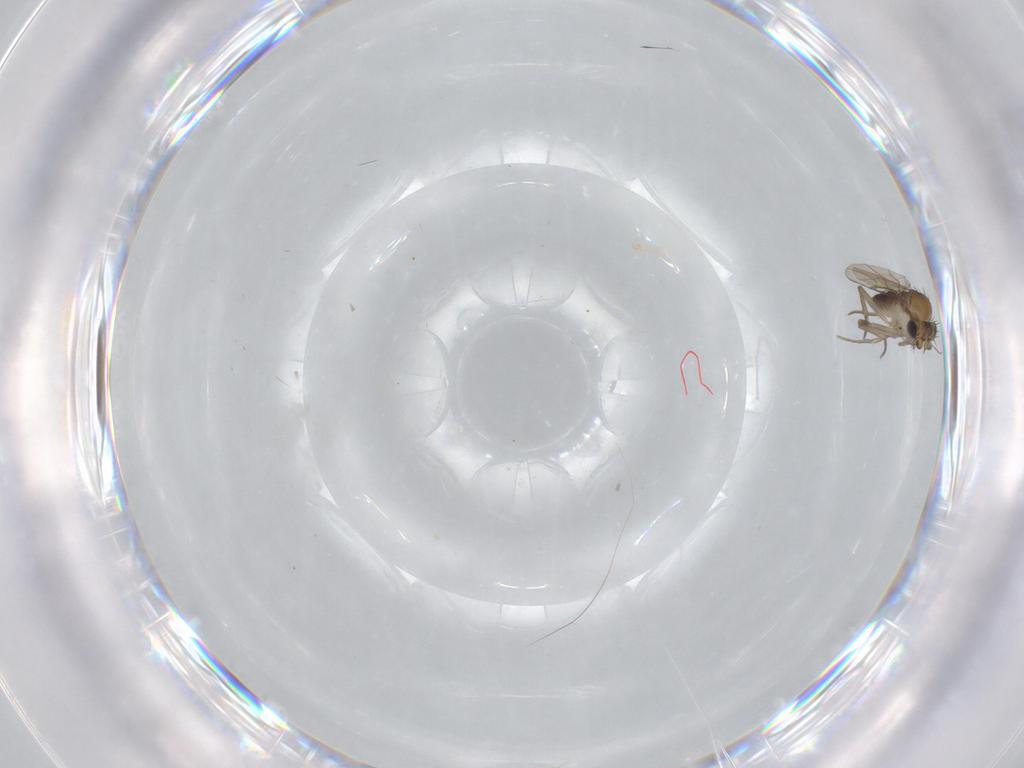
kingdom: Animalia
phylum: Arthropoda
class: Insecta
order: Diptera
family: Phoridae
